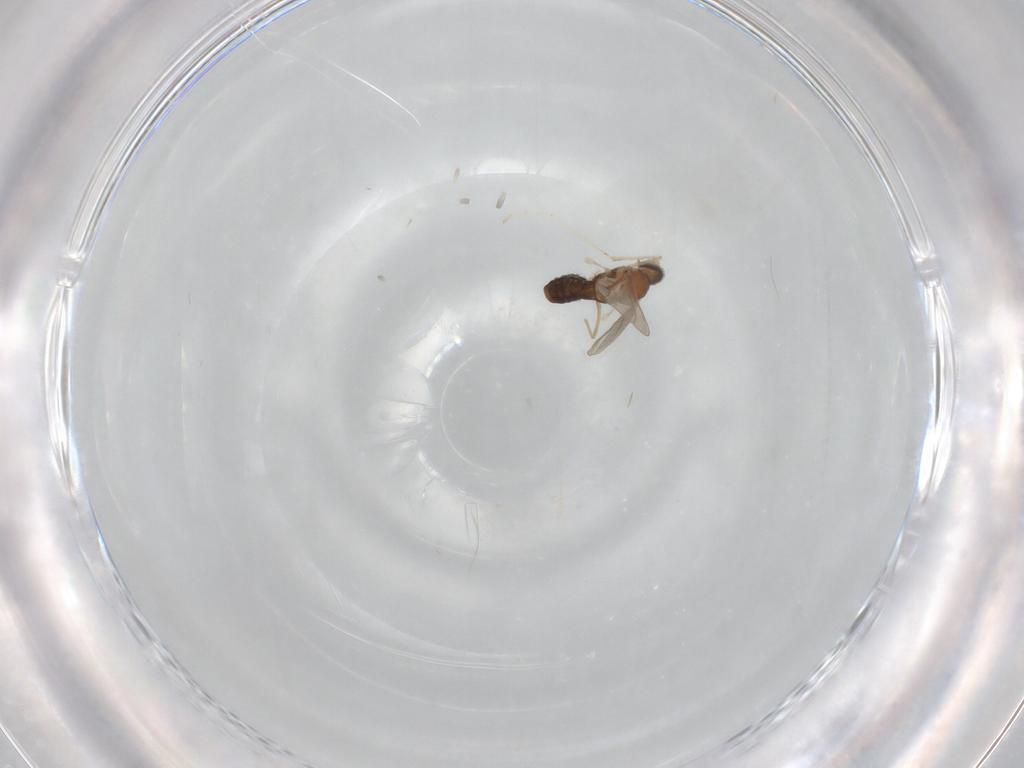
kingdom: Animalia
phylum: Arthropoda
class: Insecta
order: Diptera
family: Cecidomyiidae
